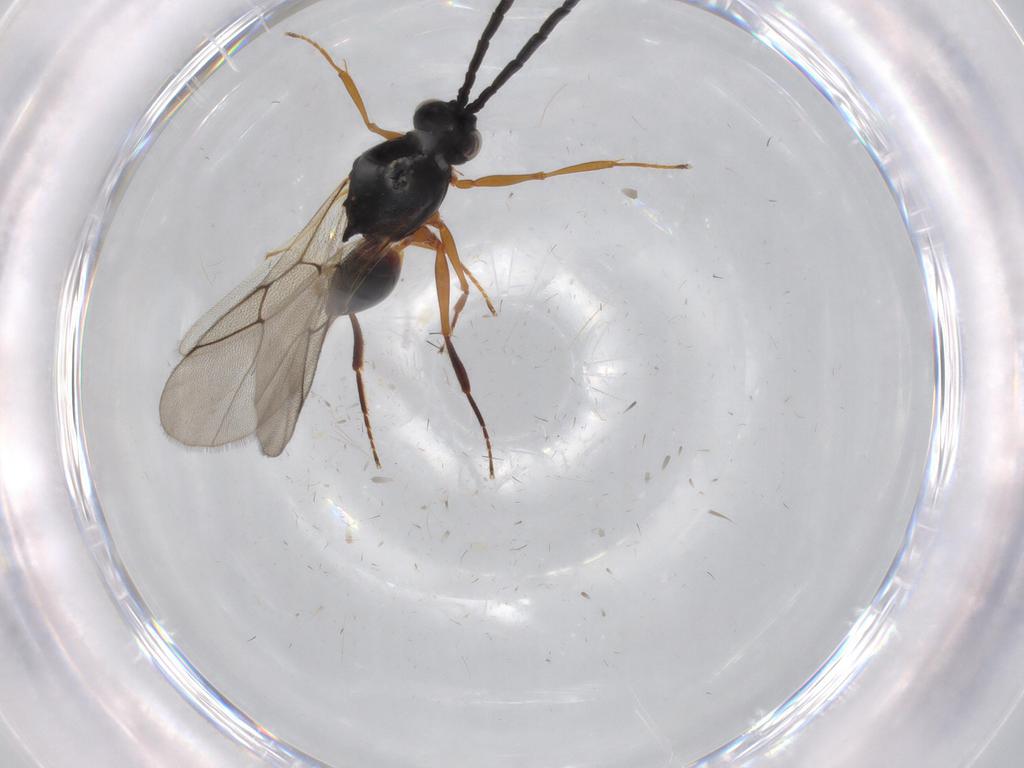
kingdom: Animalia
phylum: Arthropoda
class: Insecta
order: Hymenoptera
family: Figitidae
